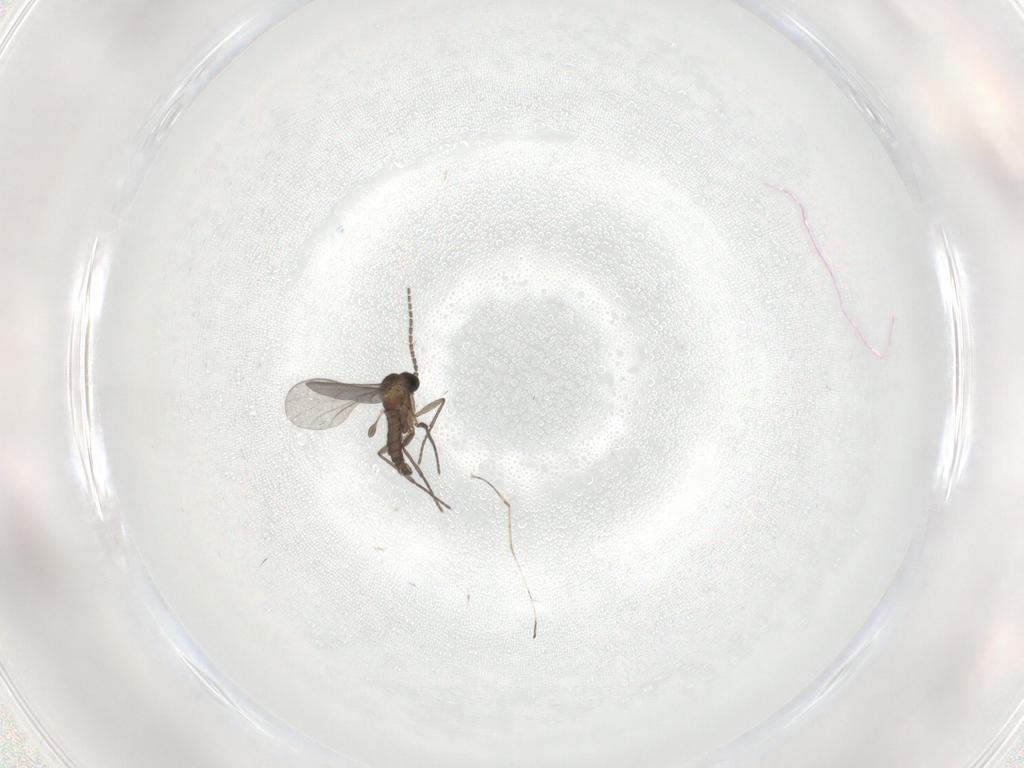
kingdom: Animalia
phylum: Arthropoda
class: Insecta
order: Diptera
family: Sciaridae
